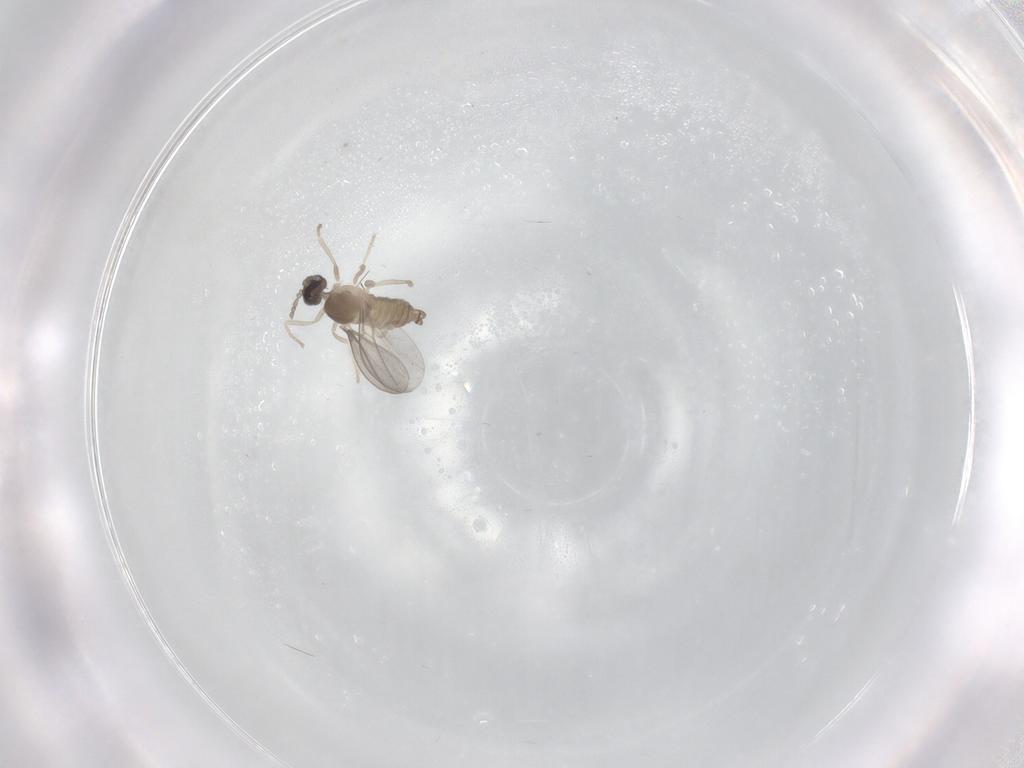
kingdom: Animalia
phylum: Arthropoda
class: Insecta
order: Diptera
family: Cecidomyiidae
